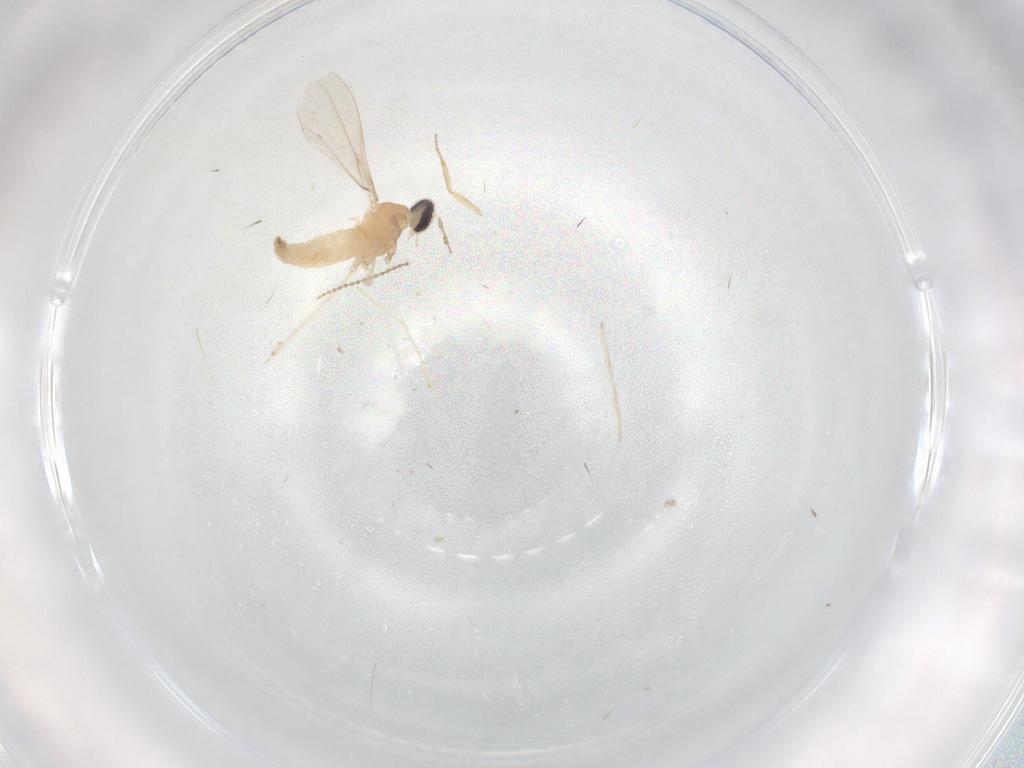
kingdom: Animalia
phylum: Arthropoda
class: Insecta
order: Diptera
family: Cecidomyiidae
